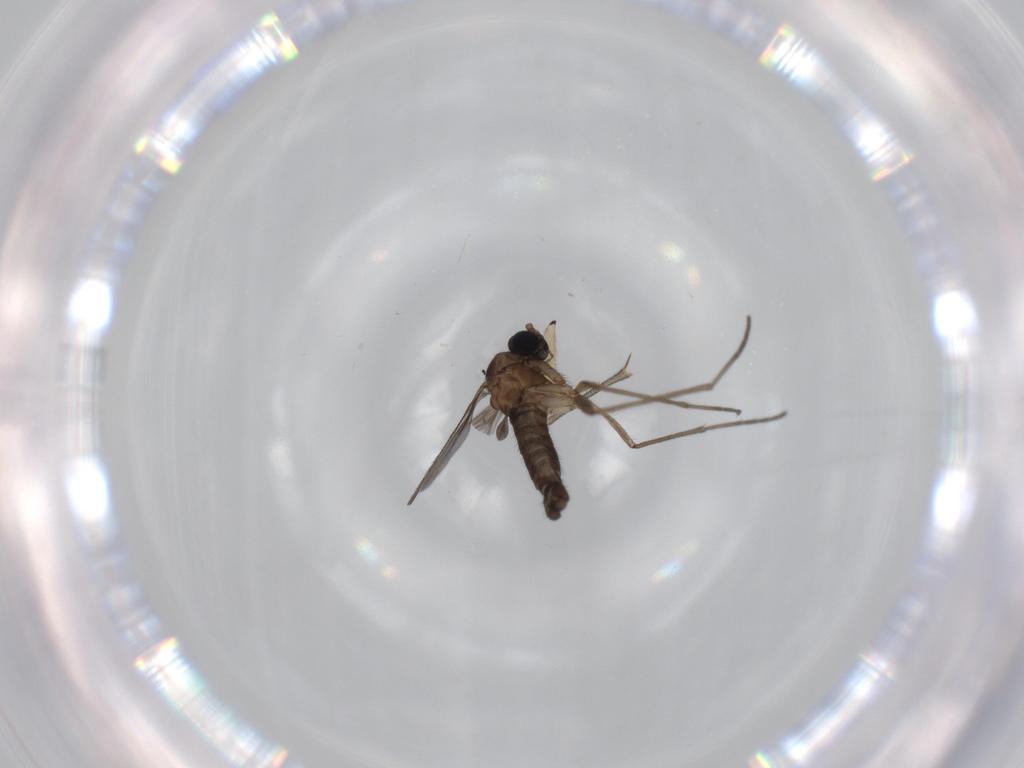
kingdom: Animalia
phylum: Arthropoda
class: Insecta
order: Diptera
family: Sciaridae
